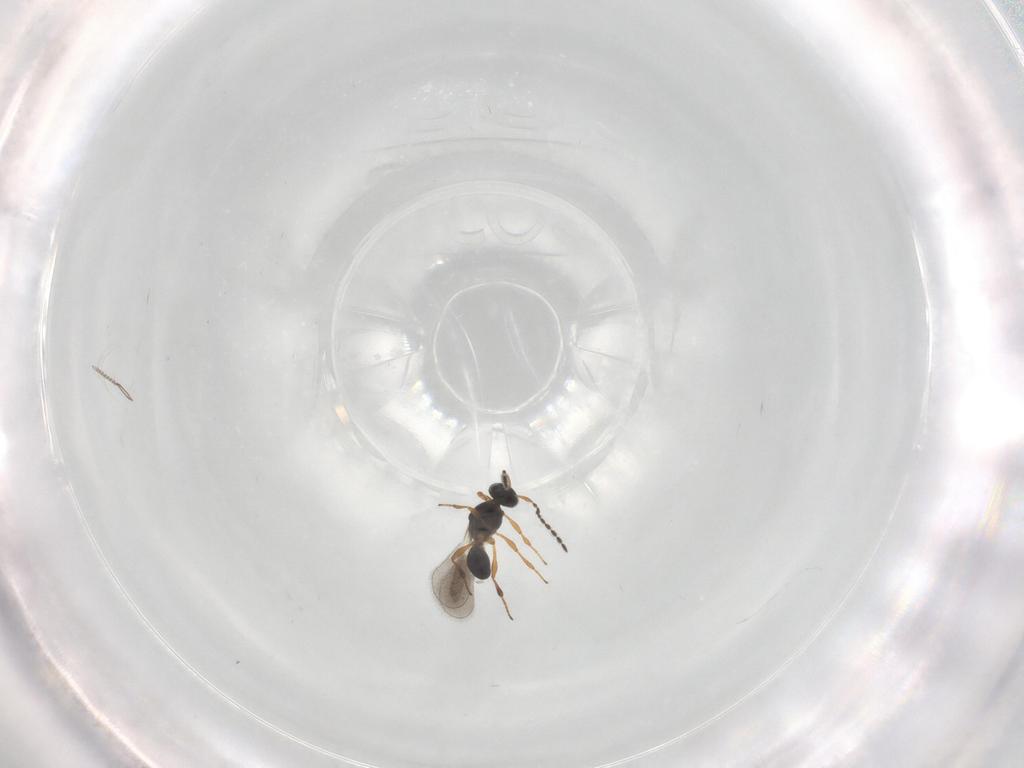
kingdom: Animalia
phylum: Arthropoda
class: Insecta
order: Hymenoptera
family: Platygastridae
